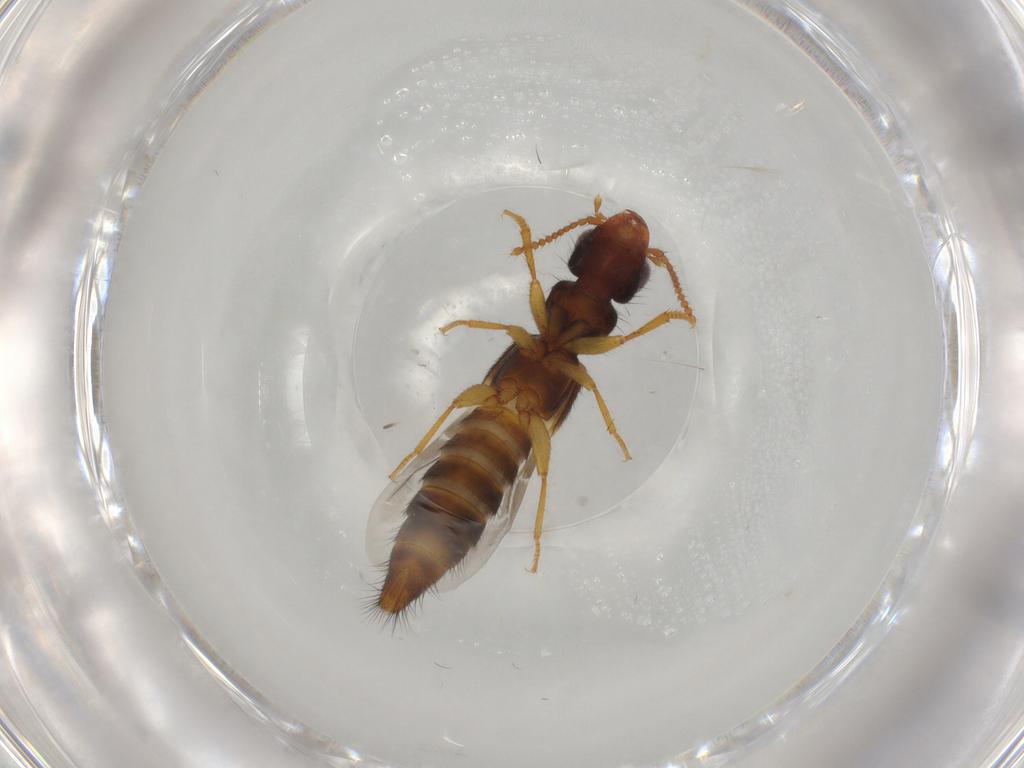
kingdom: Animalia
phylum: Arthropoda
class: Insecta
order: Coleoptera
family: Staphylinidae
